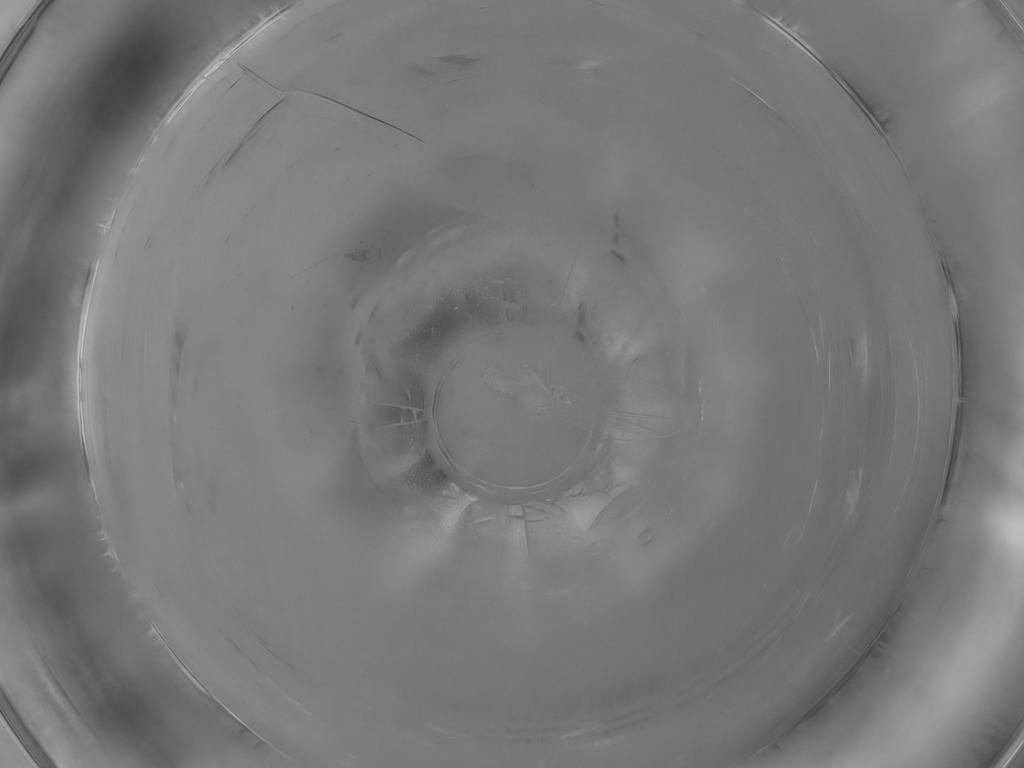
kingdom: Animalia
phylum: Arthropoda
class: Insecta
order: Diptera
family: Cecidomyiidae
